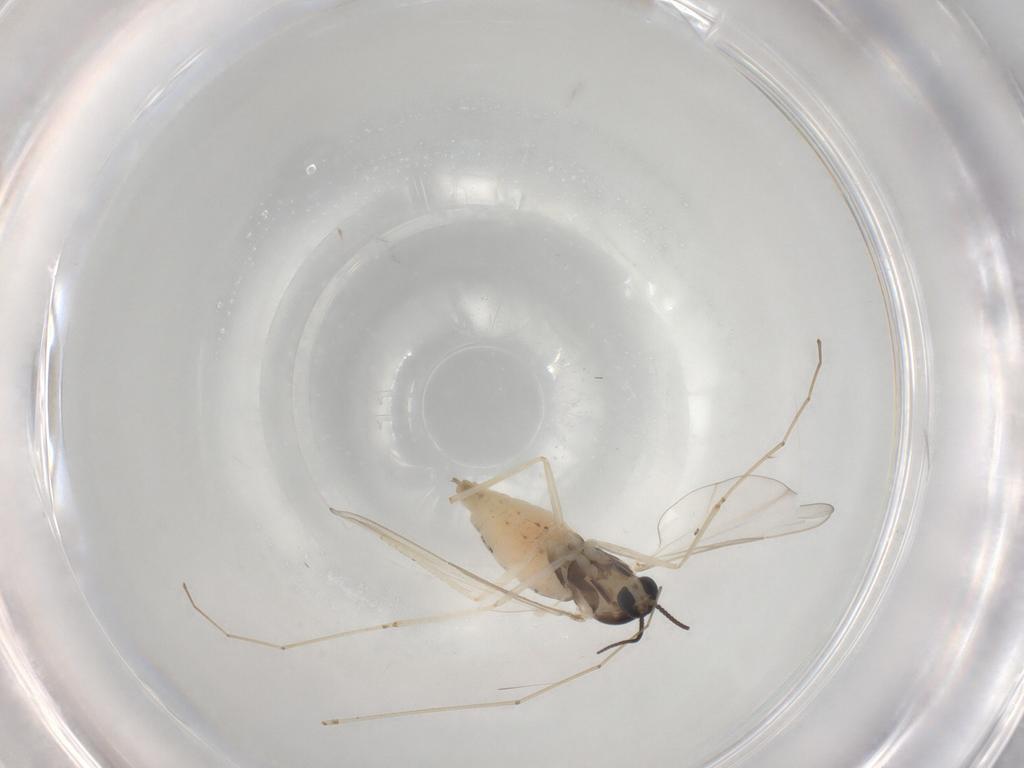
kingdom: Animalia
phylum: Arthropoda
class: Insecta
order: Diptera
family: Cecidomyiidae
